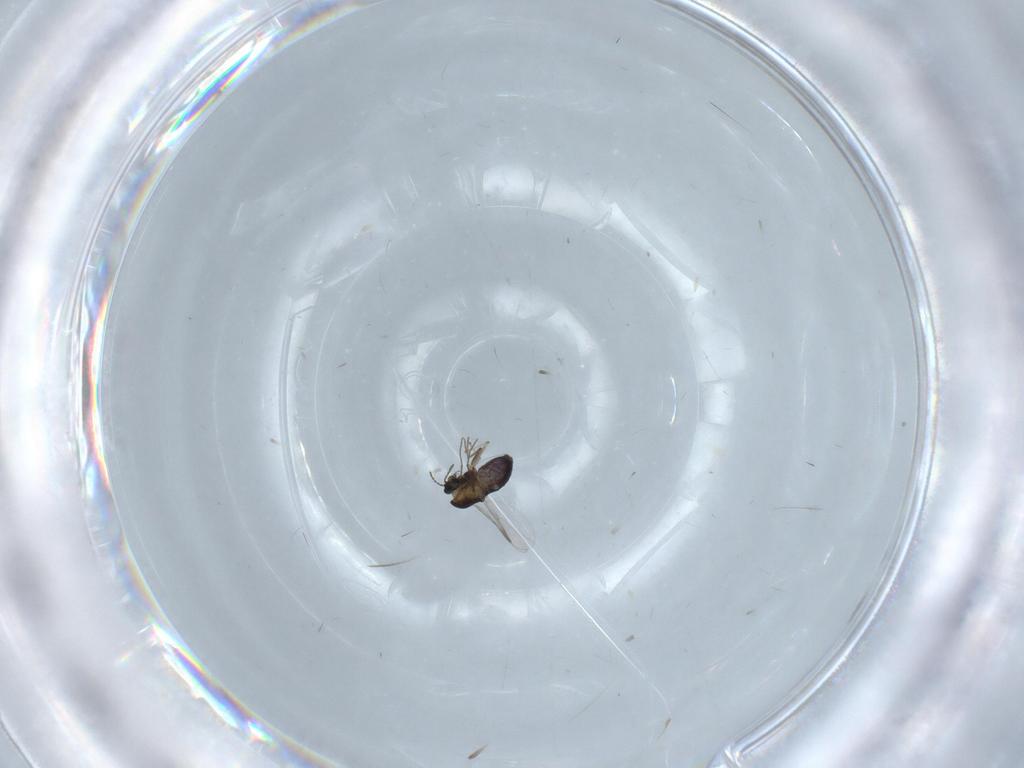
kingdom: Animalia
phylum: Arthropoda
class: Insecta
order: Diptera
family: Chironomidae
